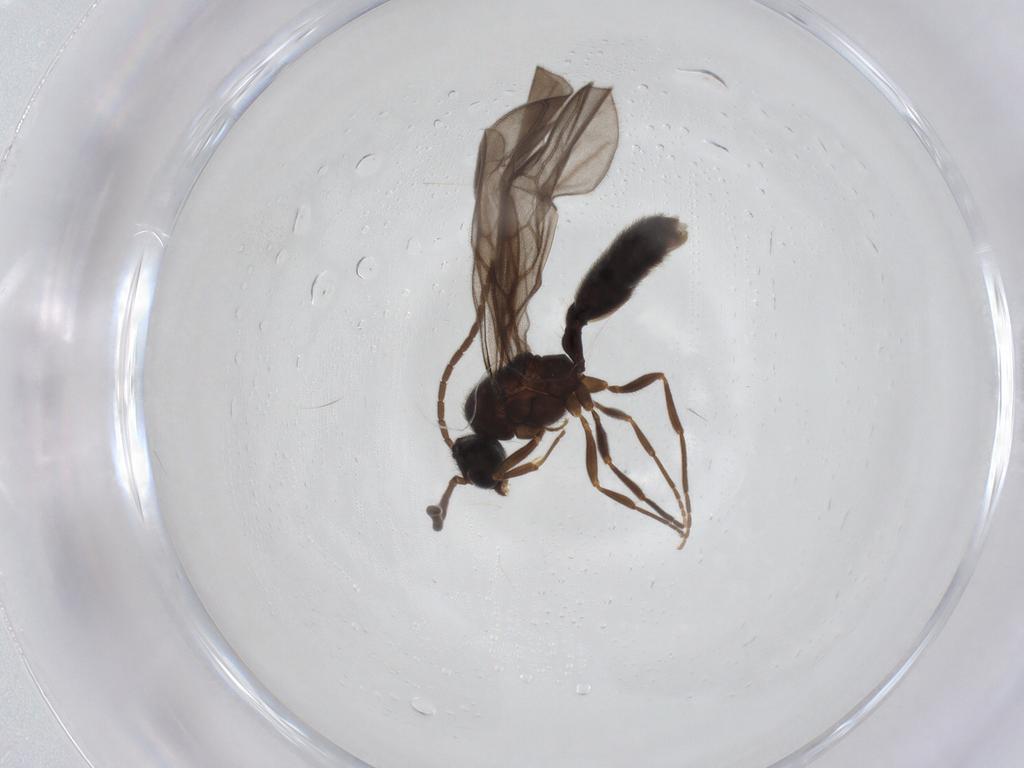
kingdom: Animalia
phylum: Arthropoda
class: Insecta
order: Hymenoptera
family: Formicidae
